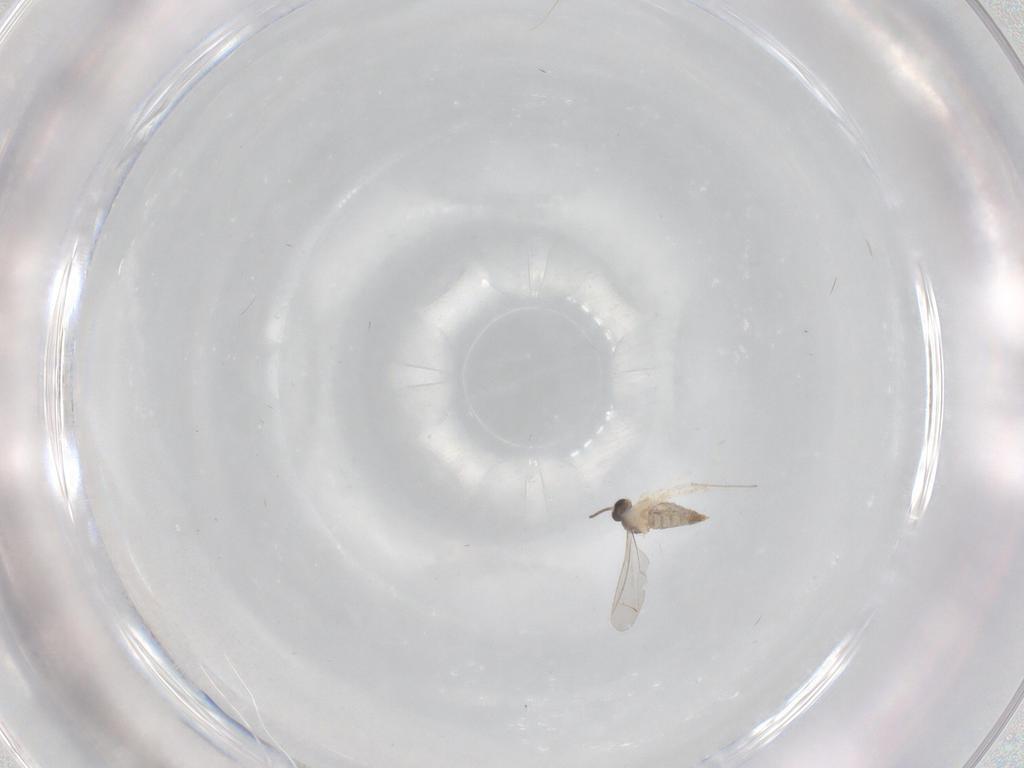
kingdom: Animalia
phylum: Arthropoda
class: Insecta
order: Diptera
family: Cecidomyiidae
